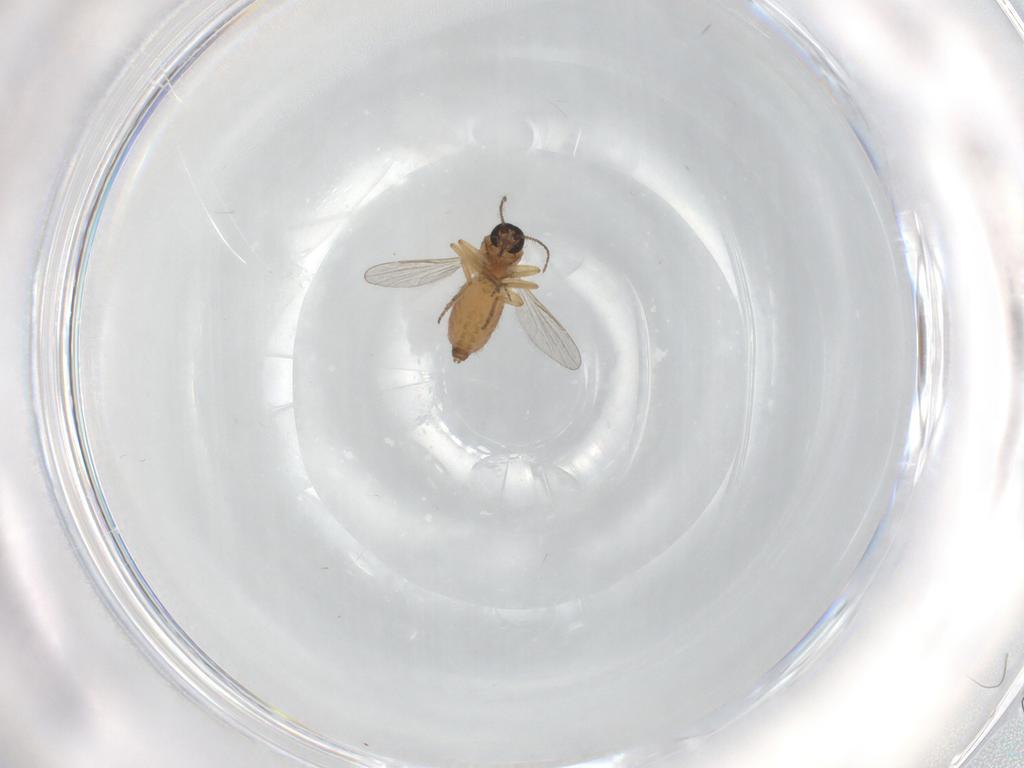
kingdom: Animalia
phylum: Arthropoda
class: Insecta
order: Diptera
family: Ceratopogonidae
